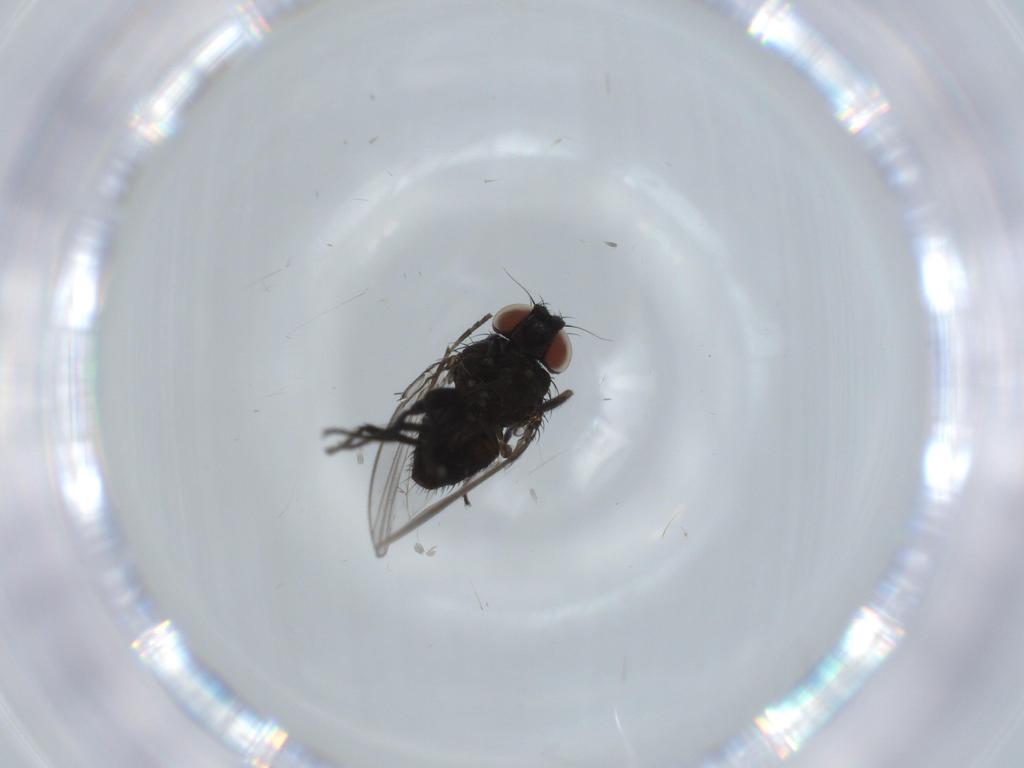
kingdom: Animalia
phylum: Arthropoda
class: Insecta
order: Diptera
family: Milichiidae
